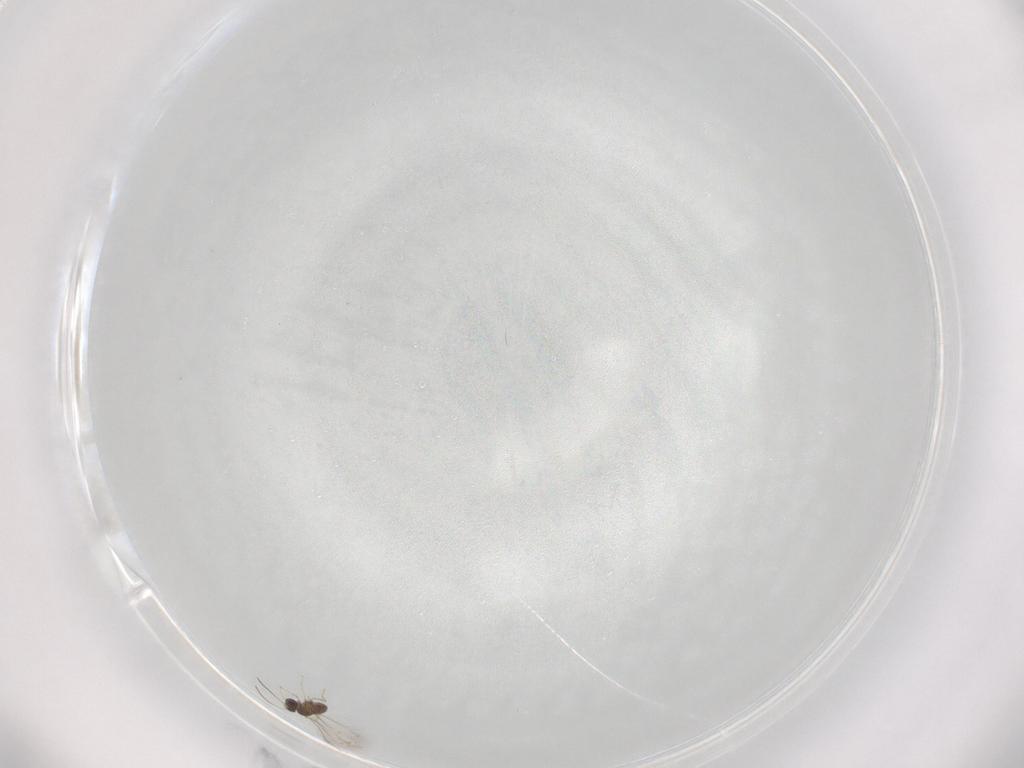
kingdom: Animalia
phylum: Arthropoda
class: Insecta
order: Hymenoptera
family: Mymaridae
